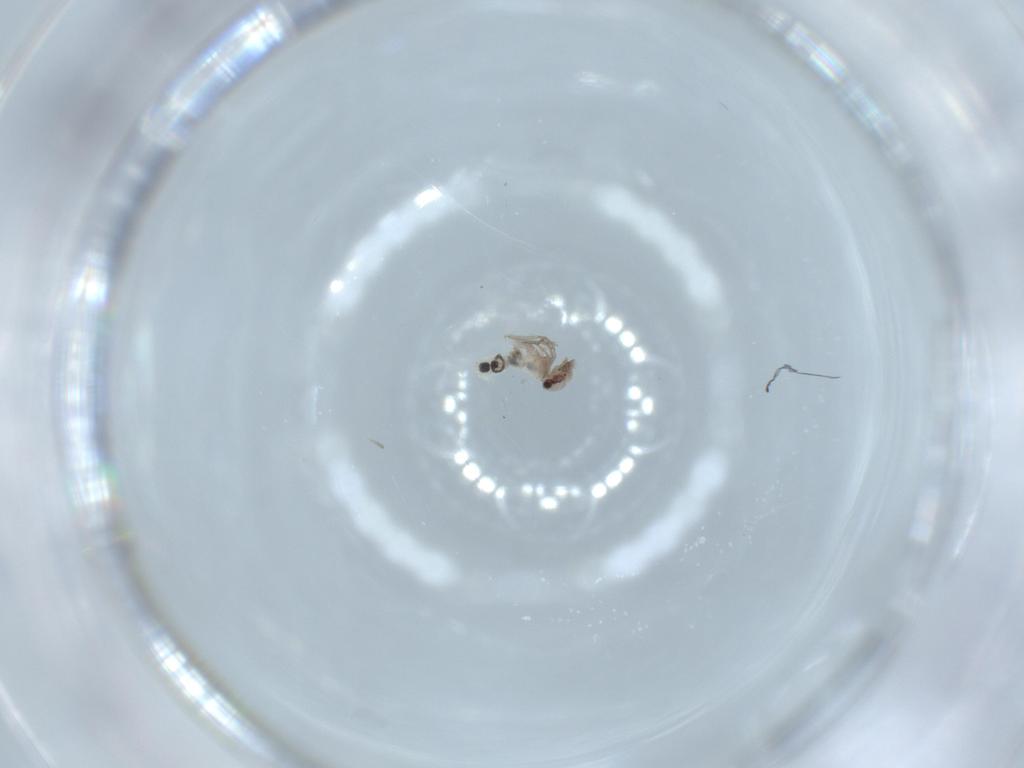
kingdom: Animalia
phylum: Arthropoda
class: Insecta
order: Psocodea
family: Lepidopsocidae
